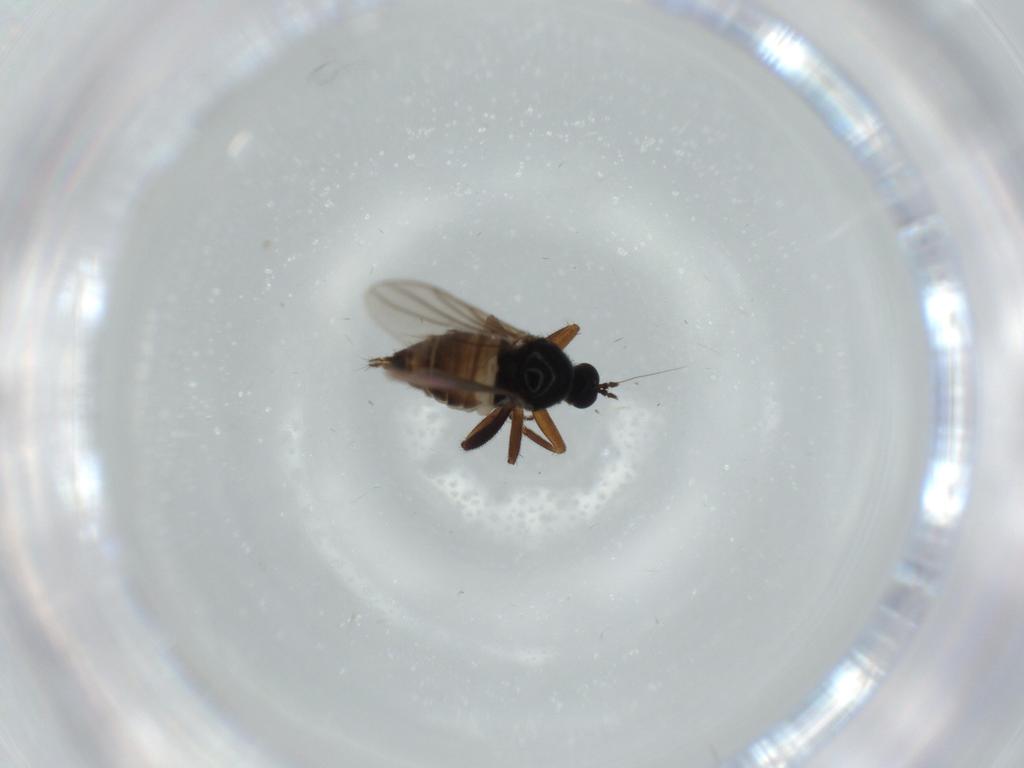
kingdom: Animalia
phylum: Arthropoda
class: Insecta
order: Diptera
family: Hybotidae
